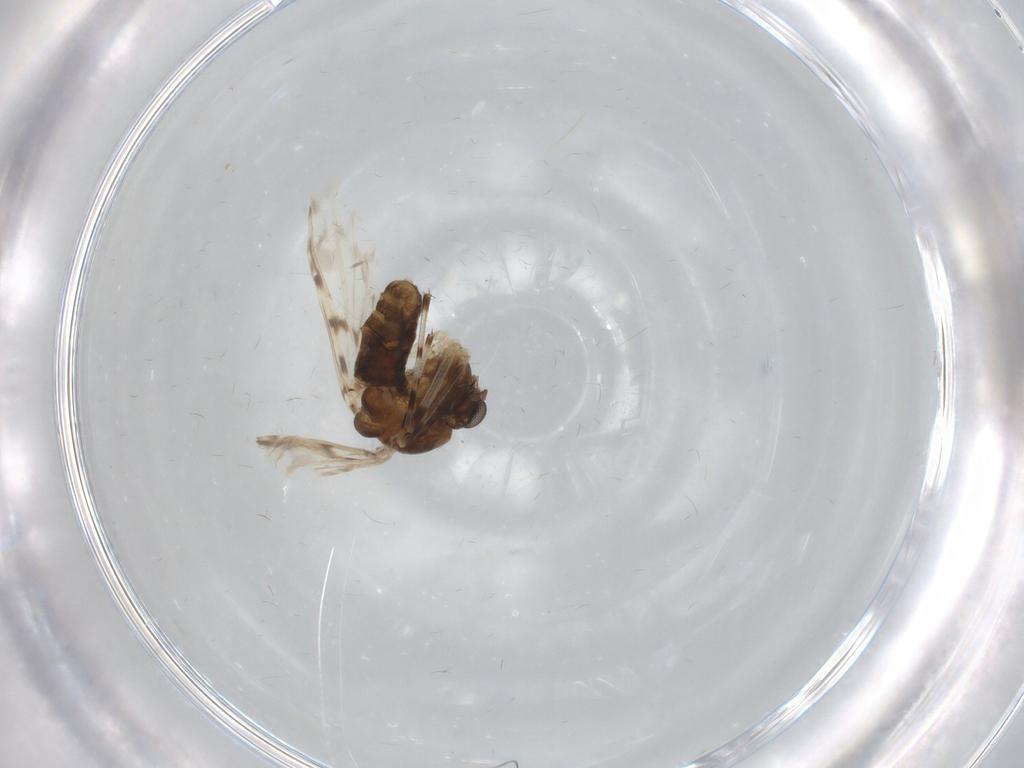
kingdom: Animalia
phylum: Arthropoda
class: Insecta
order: Diptera
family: Chironomidae
